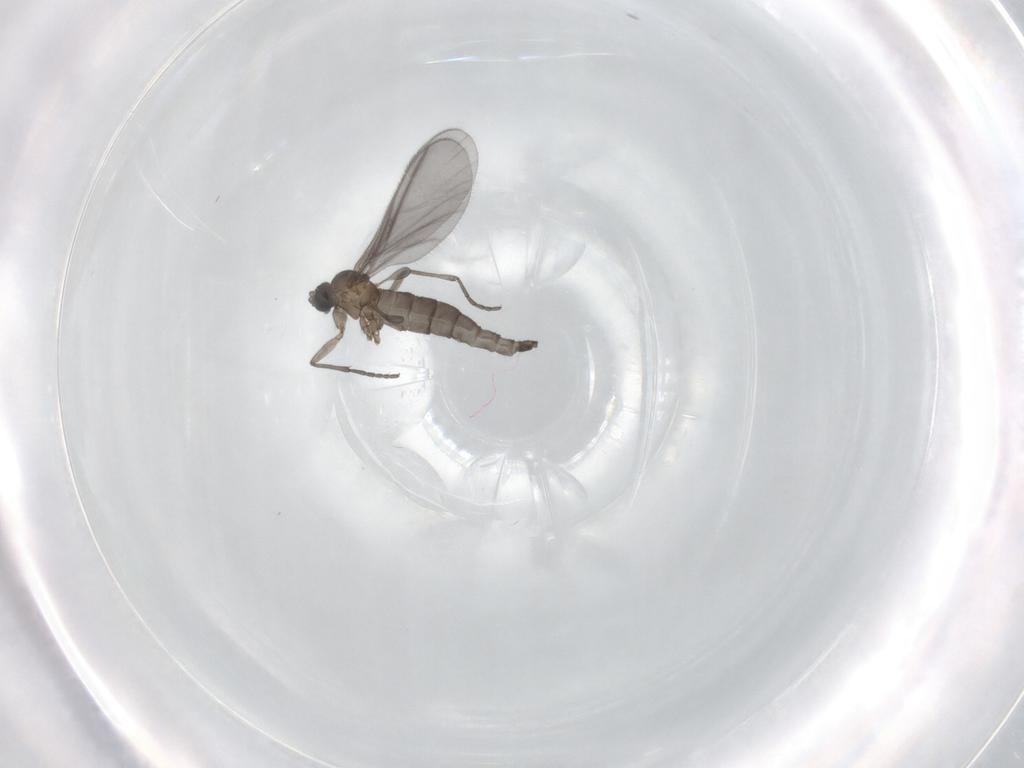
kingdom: Animalia
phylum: Arthropoda
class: Insecta
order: Diptera
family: Sciaridae
